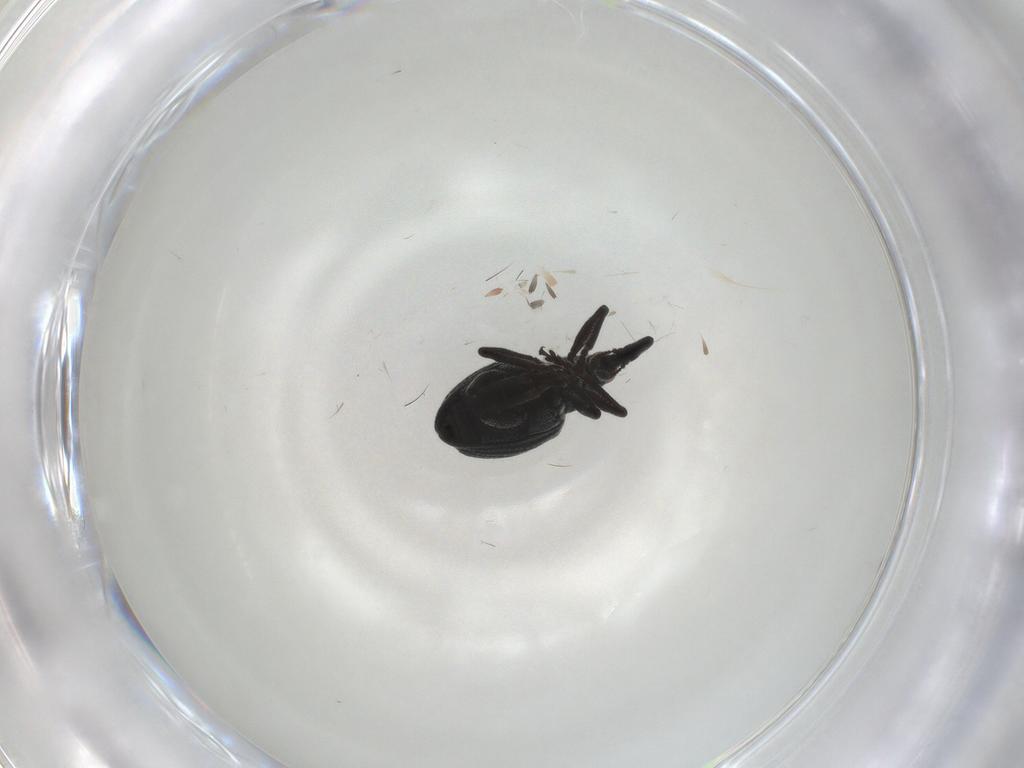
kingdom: Animalia
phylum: Arthropoda
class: Insecta
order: Coleoptera
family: Brentidae
